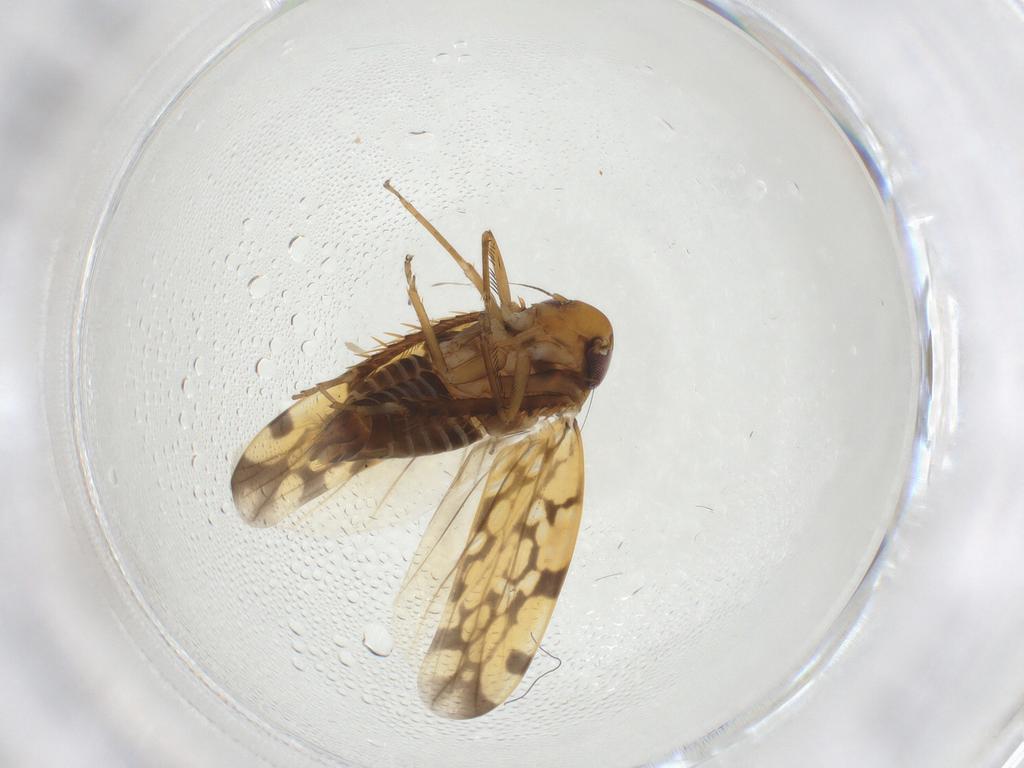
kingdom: Animalia
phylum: Arthropoda
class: Insecta
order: Hemiptera
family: Cicadellidae
